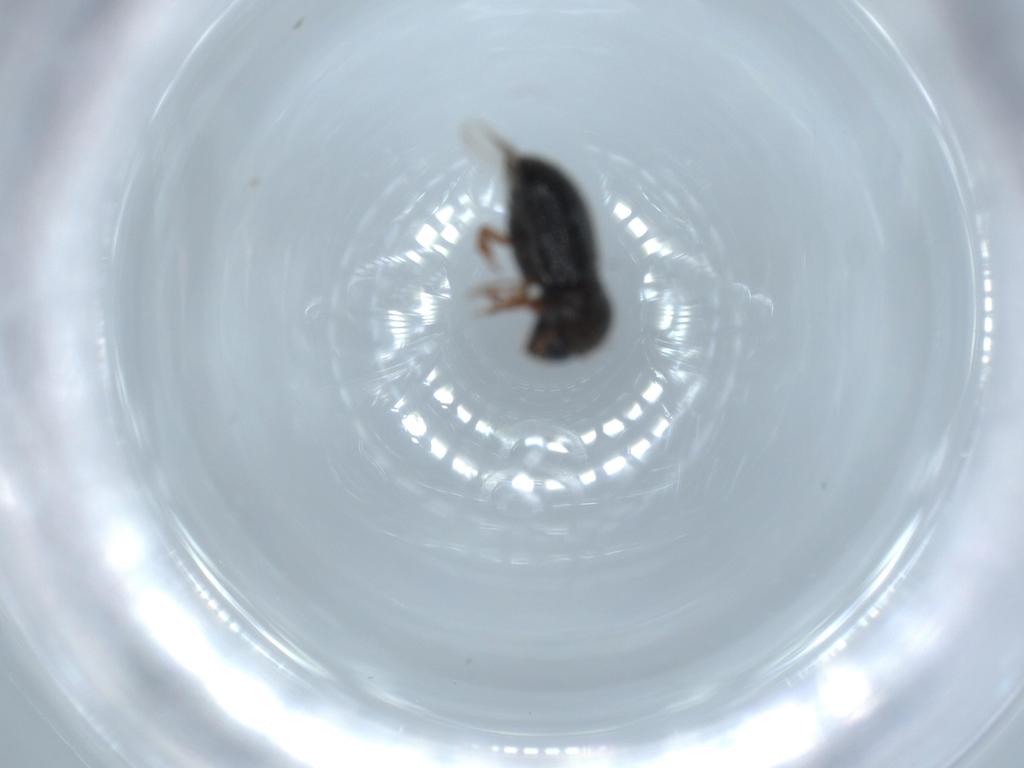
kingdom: Animalia
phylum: Arthropoda
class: Insecta
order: Coleoptera
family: Curculionidae
